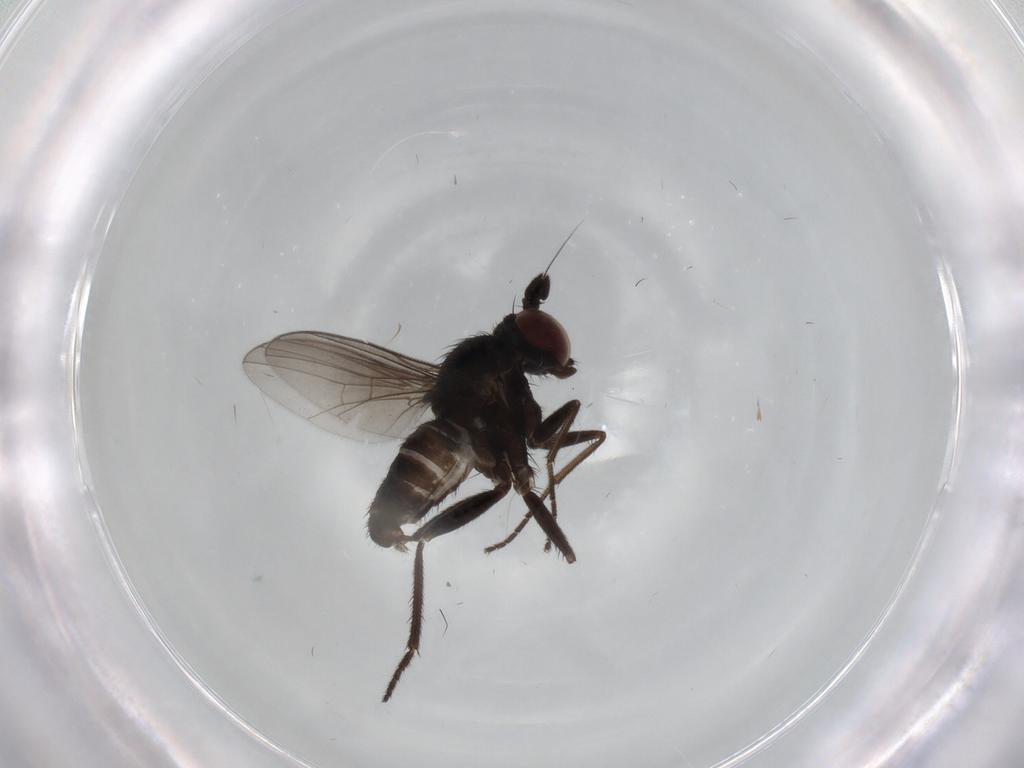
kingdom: Animalia
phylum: Arthropoda
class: Insecta
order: Diptera
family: Dolichopodidae
